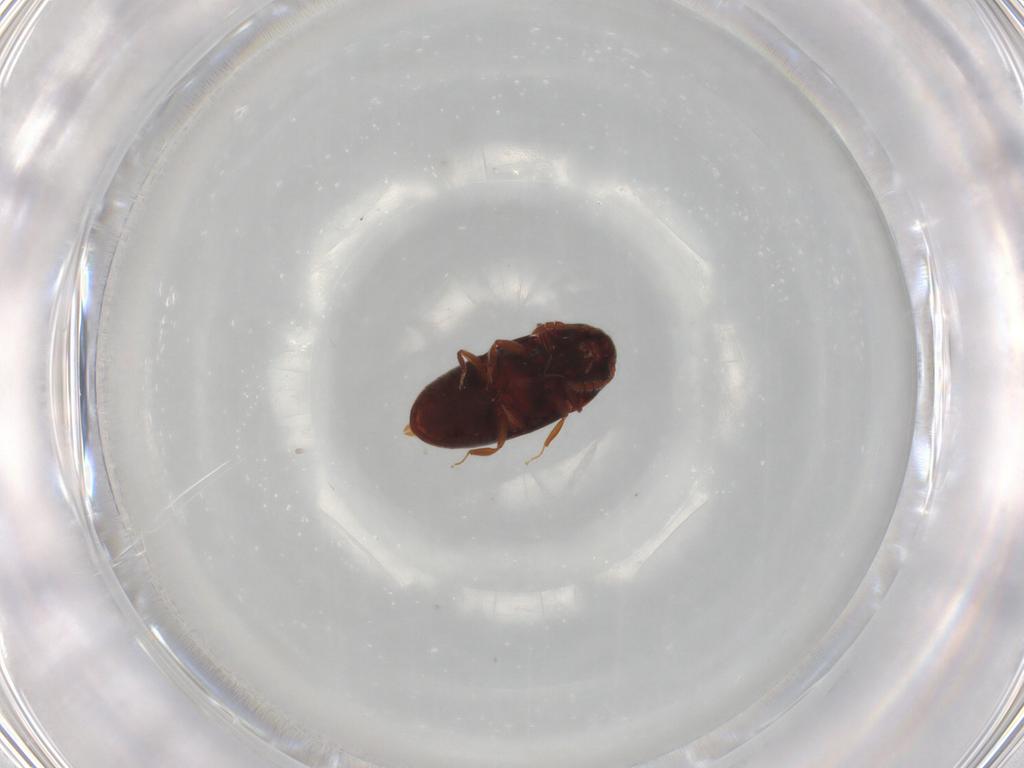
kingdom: Animalia
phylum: Arthropoda
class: Insecta
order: Coleoptera
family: Throscidae
